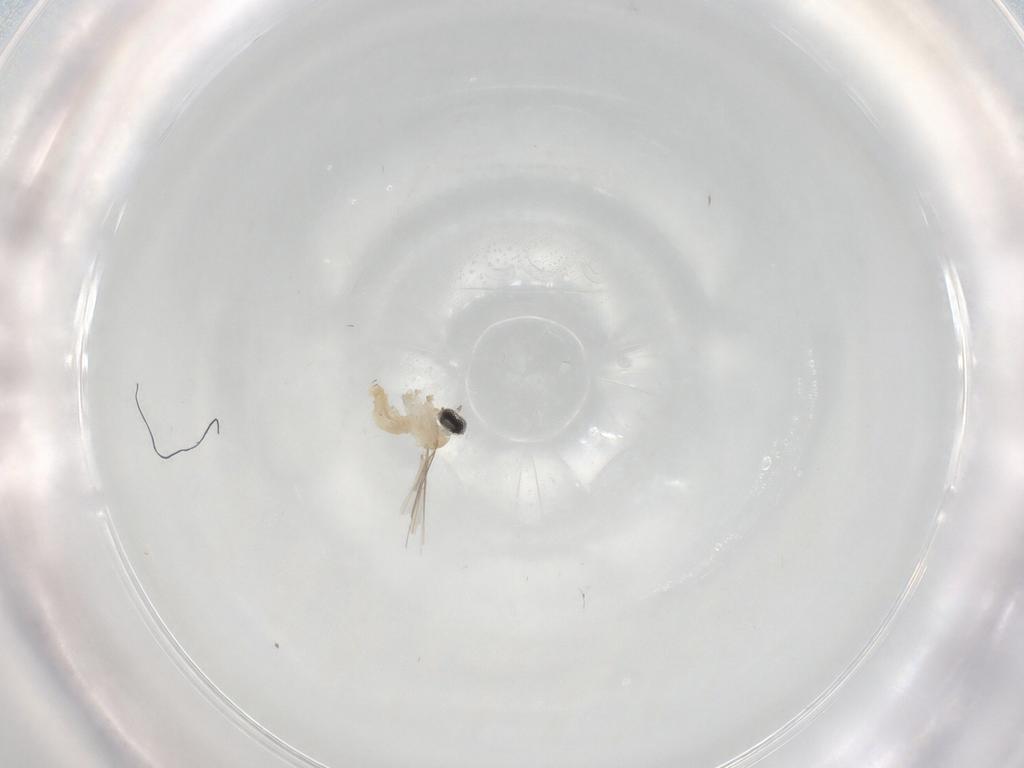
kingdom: Animalia
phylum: Arthropoda
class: Insecta
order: Diptera
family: Cecidomyiidae
